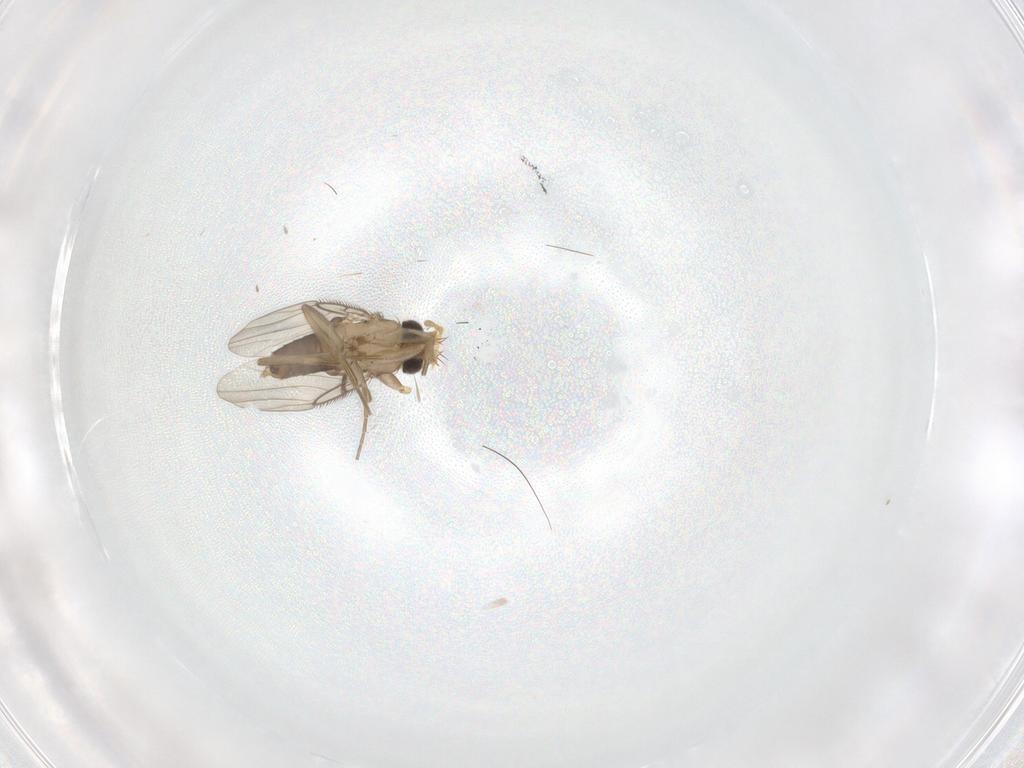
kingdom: Animalia
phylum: Arthropoda
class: Insecta
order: Diptera
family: Phoridae
